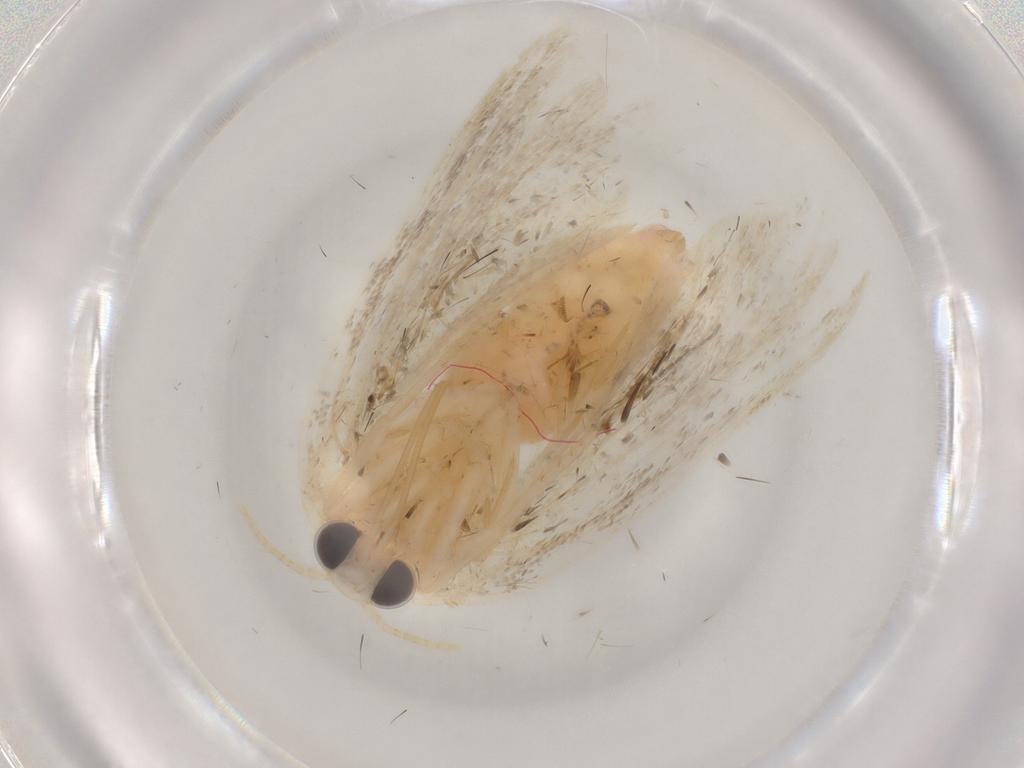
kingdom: Animalia
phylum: Arthropoda
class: Insecta
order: Lepidoptera
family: Erebidae
